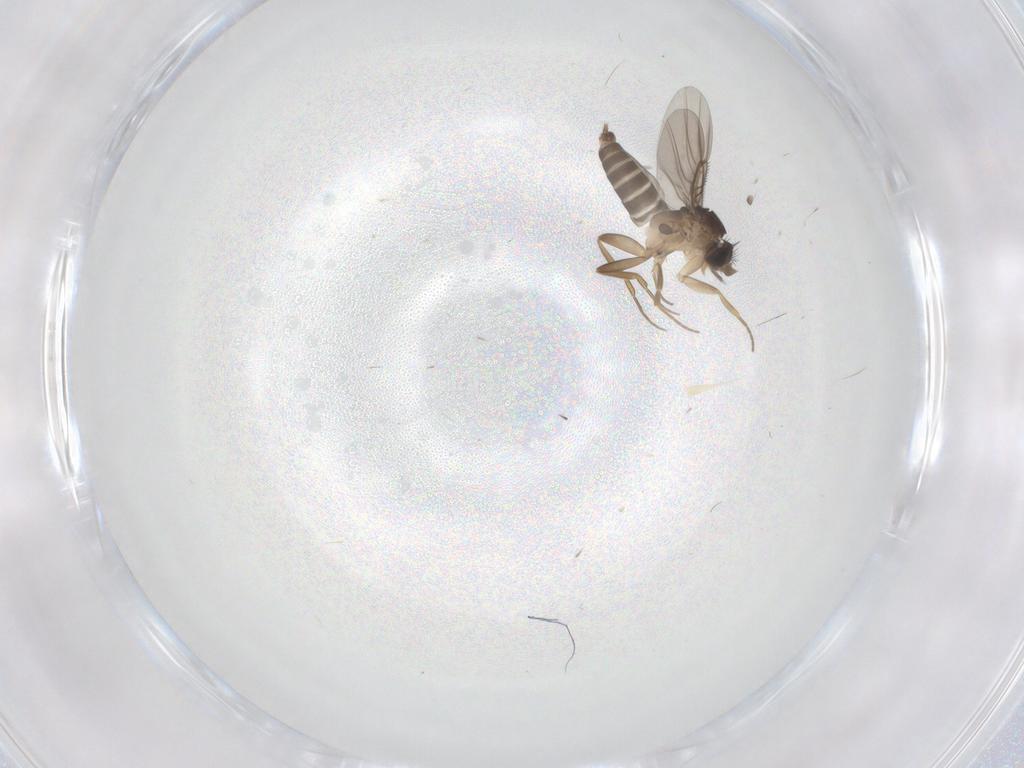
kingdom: Animalia
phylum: Arthropoda
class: Insecta
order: Diptera
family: Phoridae
